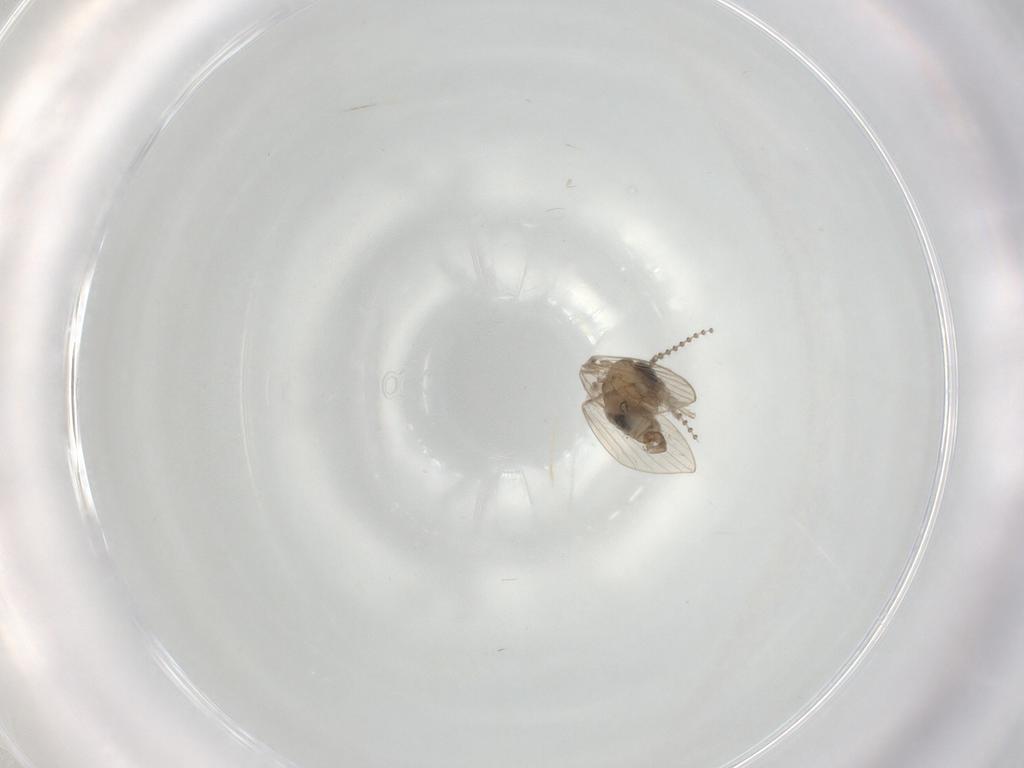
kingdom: Animalia
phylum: Arthropoda
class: Insecta
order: Diptera
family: Psychodidae
